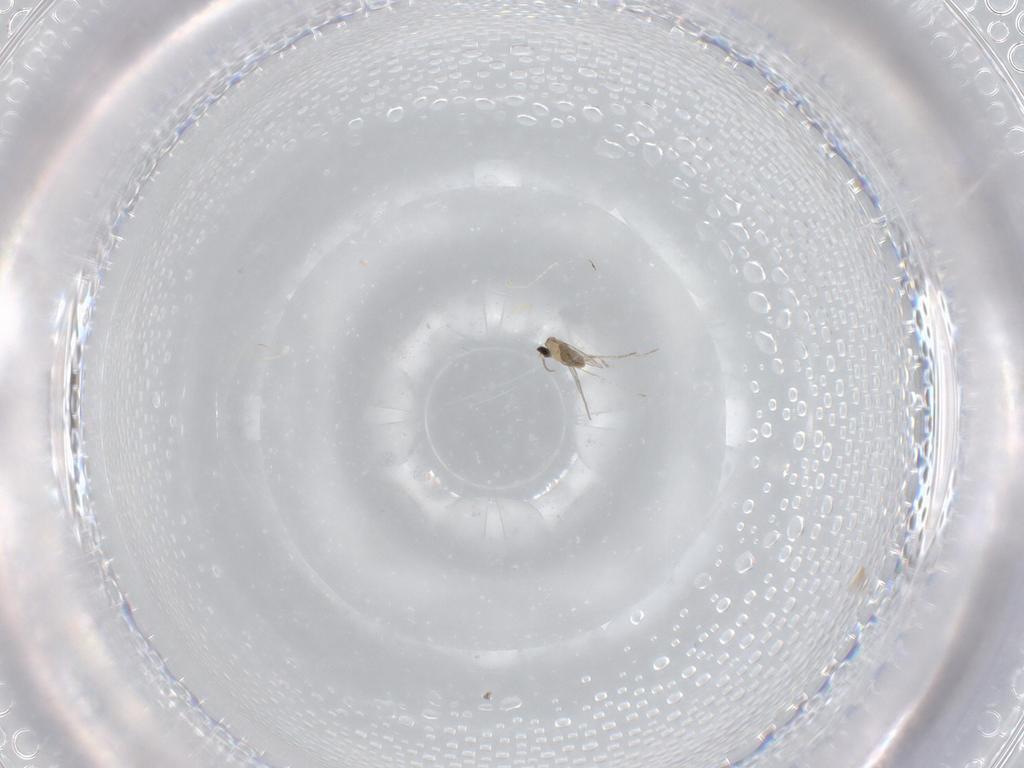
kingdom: Animalia
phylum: Arthropoda
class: Insecta
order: Diptera
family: Cecidomyiidae
